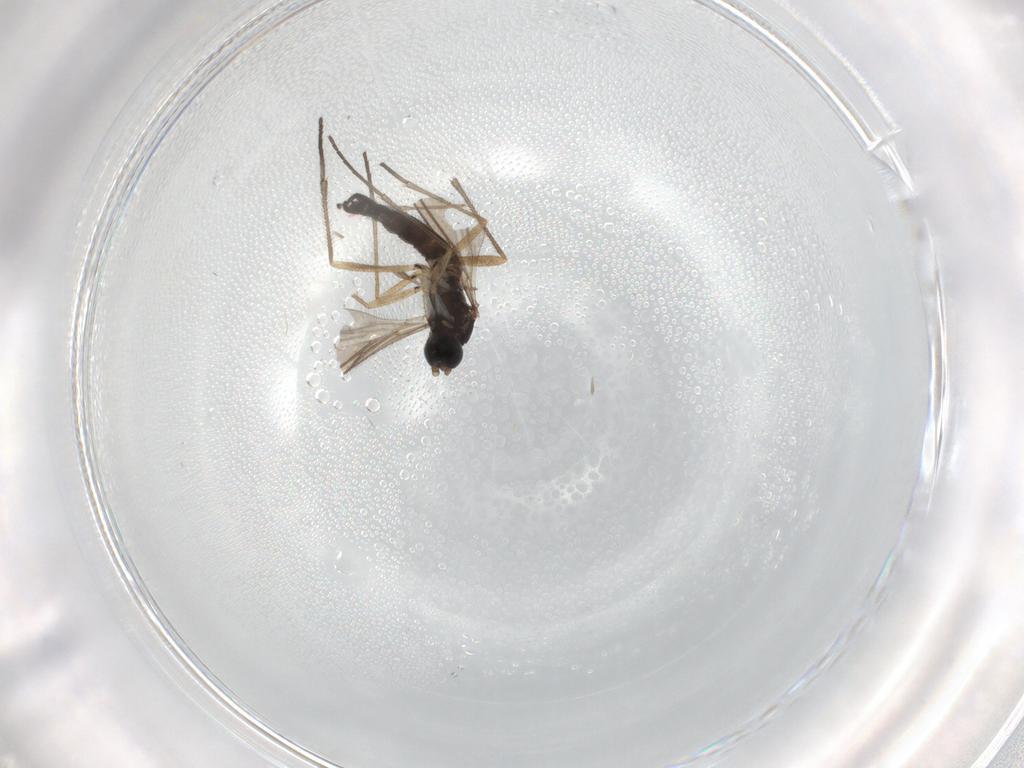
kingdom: Animalia
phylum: Arthropoda
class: Insecta
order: Diptera
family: Sciaridae
